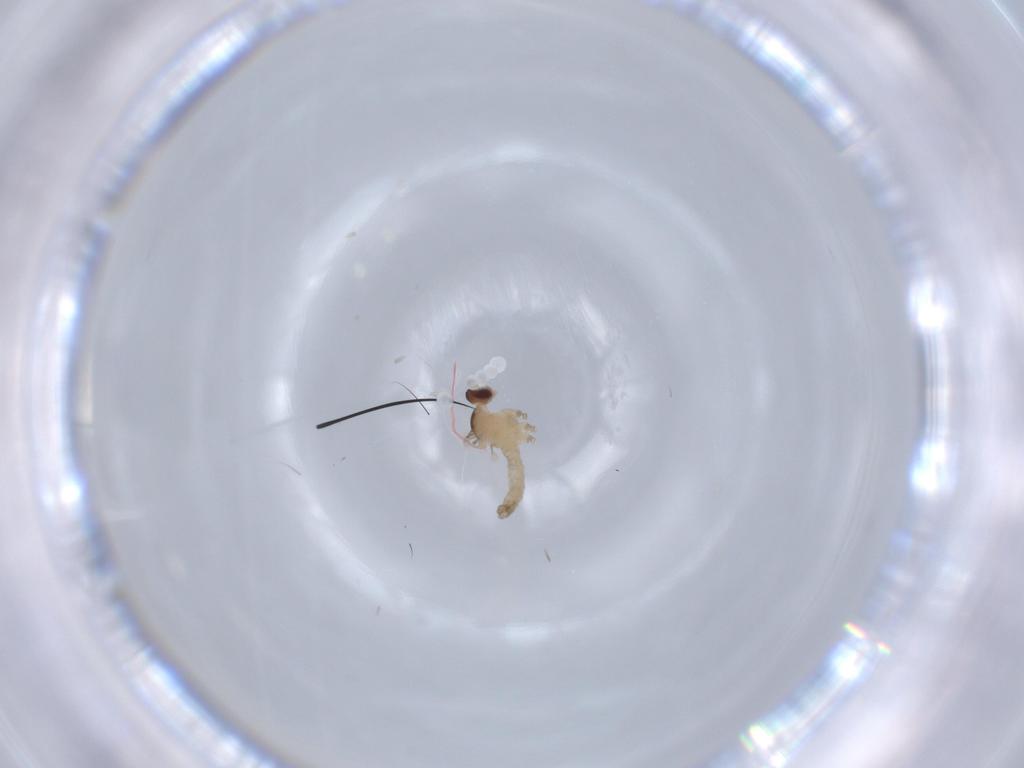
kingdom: Animalia
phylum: Arthropoda
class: Insecta
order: Diptera
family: Cecidomyiidae
